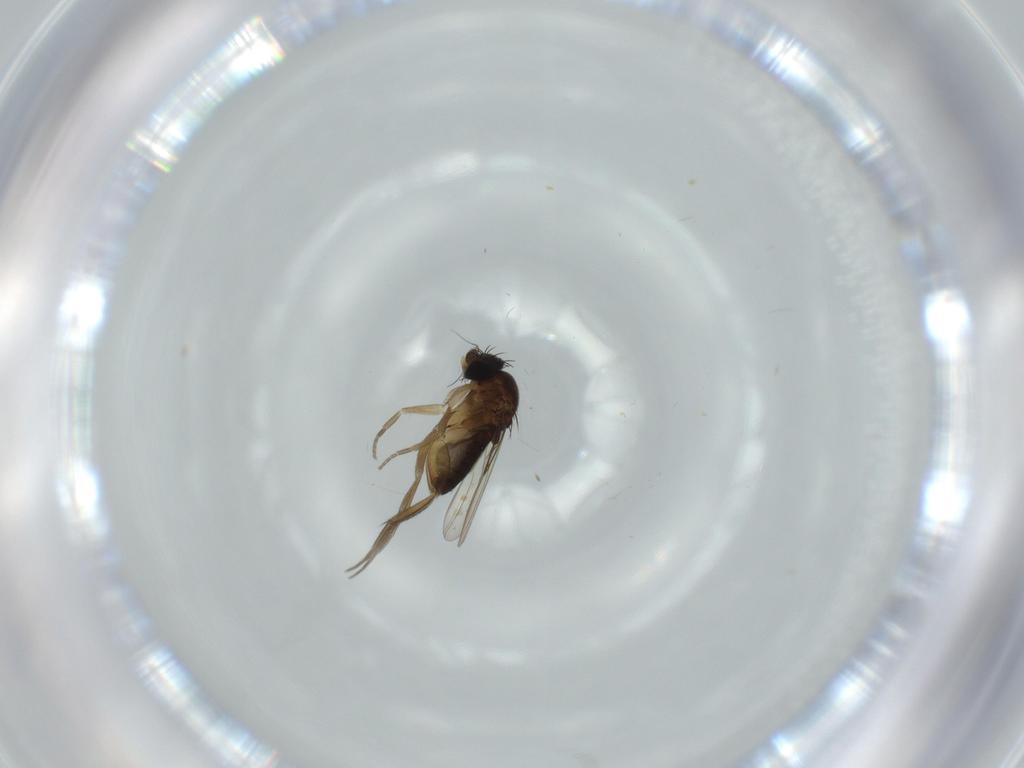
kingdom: Animalia
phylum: Arthropoda
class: Insecta
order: Diptera
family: Phoridae
